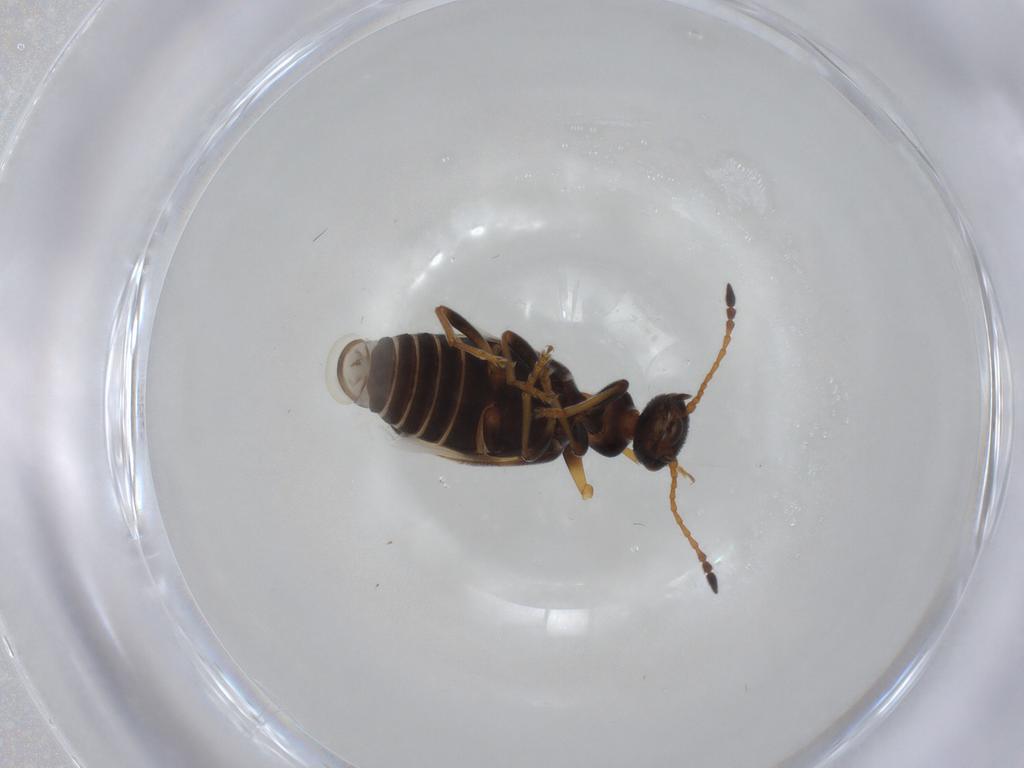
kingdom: Animalia
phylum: Arthropoda
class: Insecta
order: Coleoptera
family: Anthicidae
